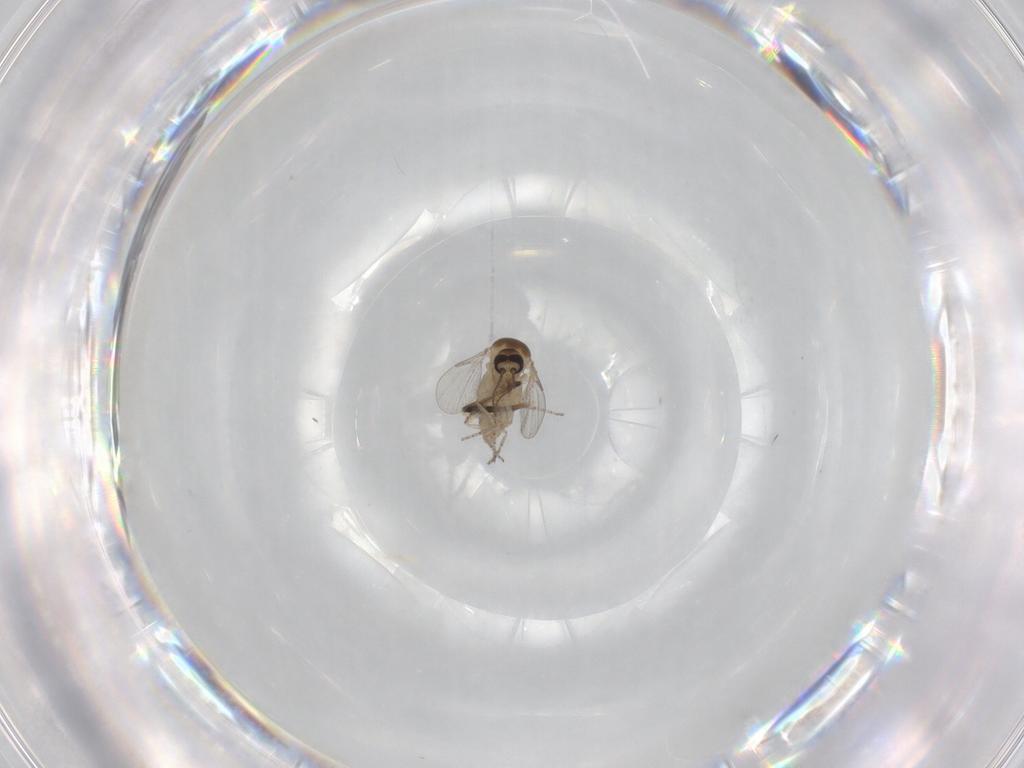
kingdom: Animalia
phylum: Arthropoda
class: Insecta
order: Diptera
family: Ceratopogonidae
